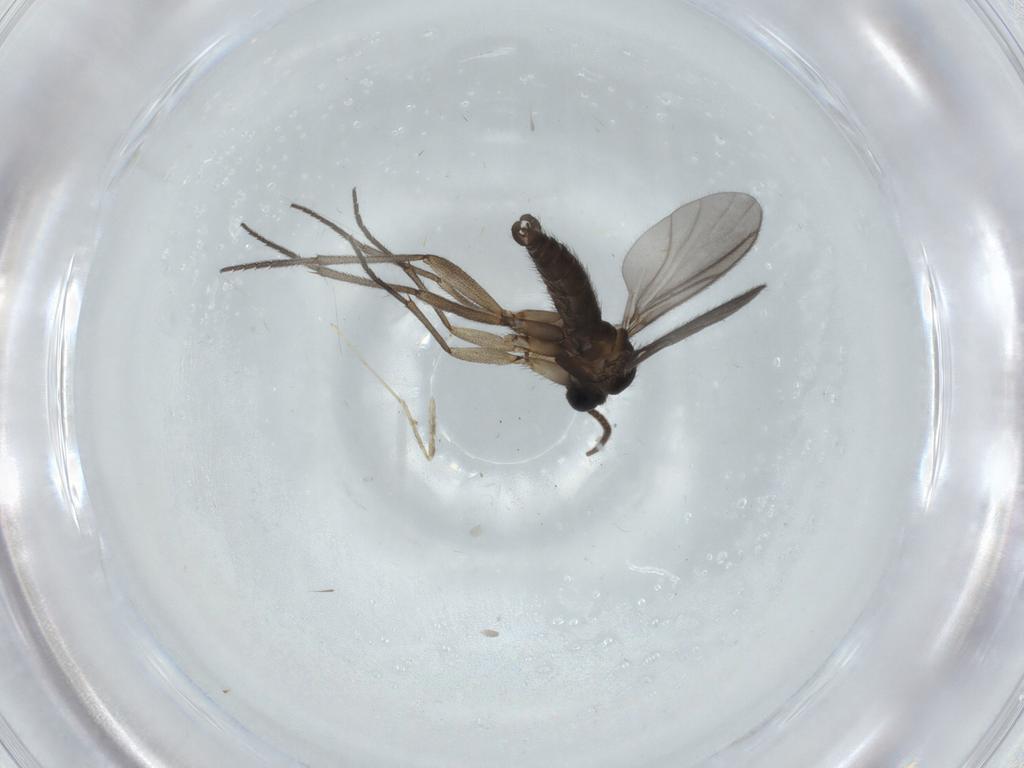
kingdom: Animalia
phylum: Arthropoda
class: Insecta
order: Diptera
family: Sciaridae
